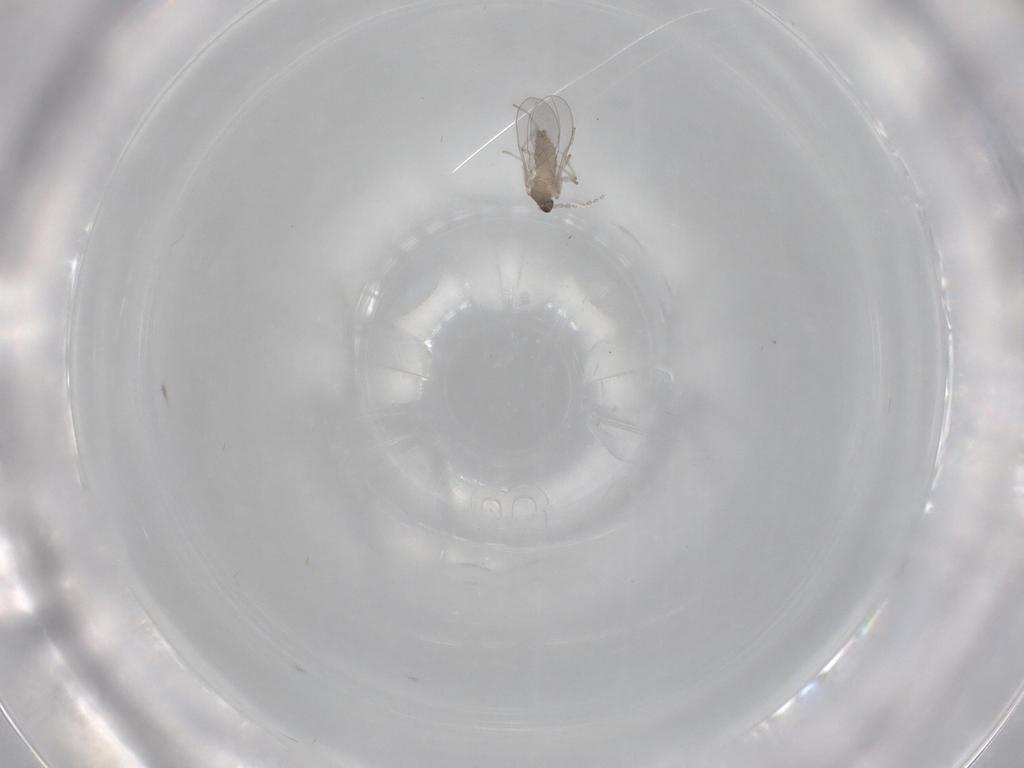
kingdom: Animalia
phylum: Arthropoda
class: Insecta
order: Diptera
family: Cecidomyiidae
